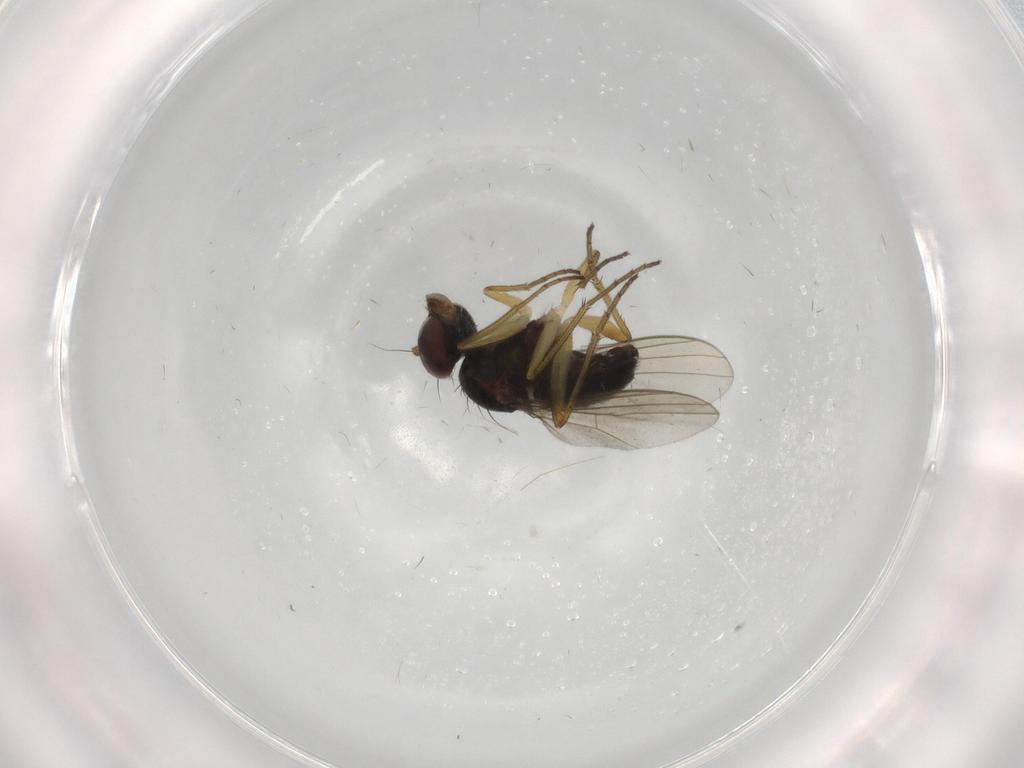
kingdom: Animalia
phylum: Arthropoda
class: Insecta
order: Diptera
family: Dolichopodidae
